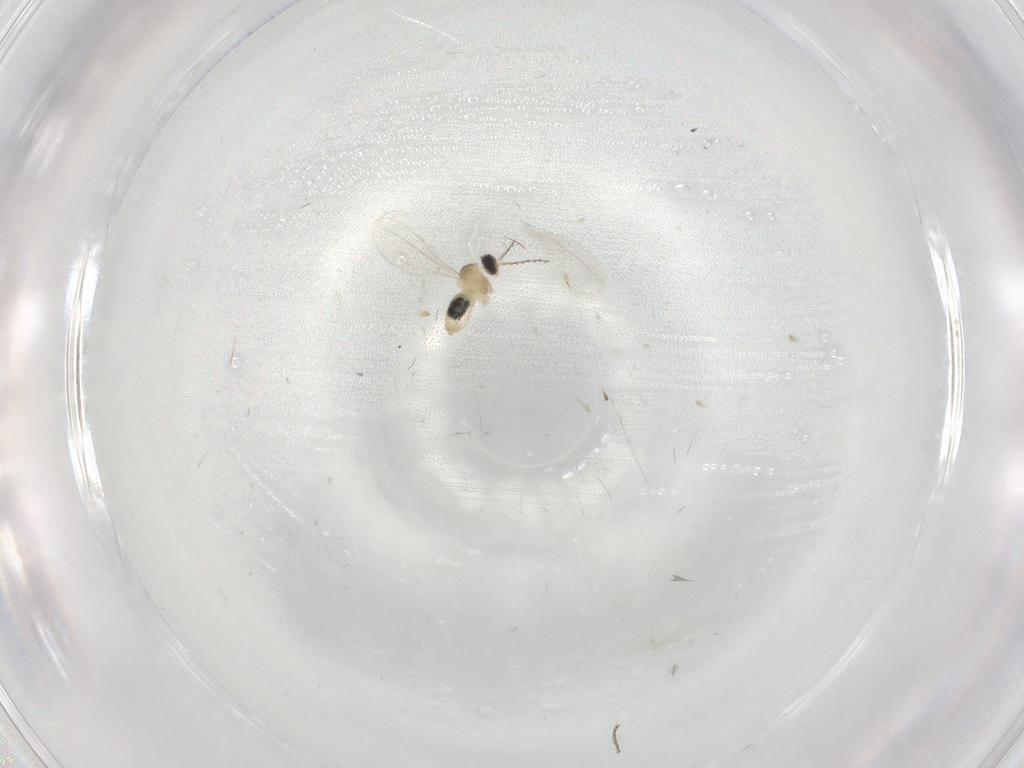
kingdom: Animalia
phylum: Arthropoda
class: Insecta
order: Diptera
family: Cecidomyiidae
